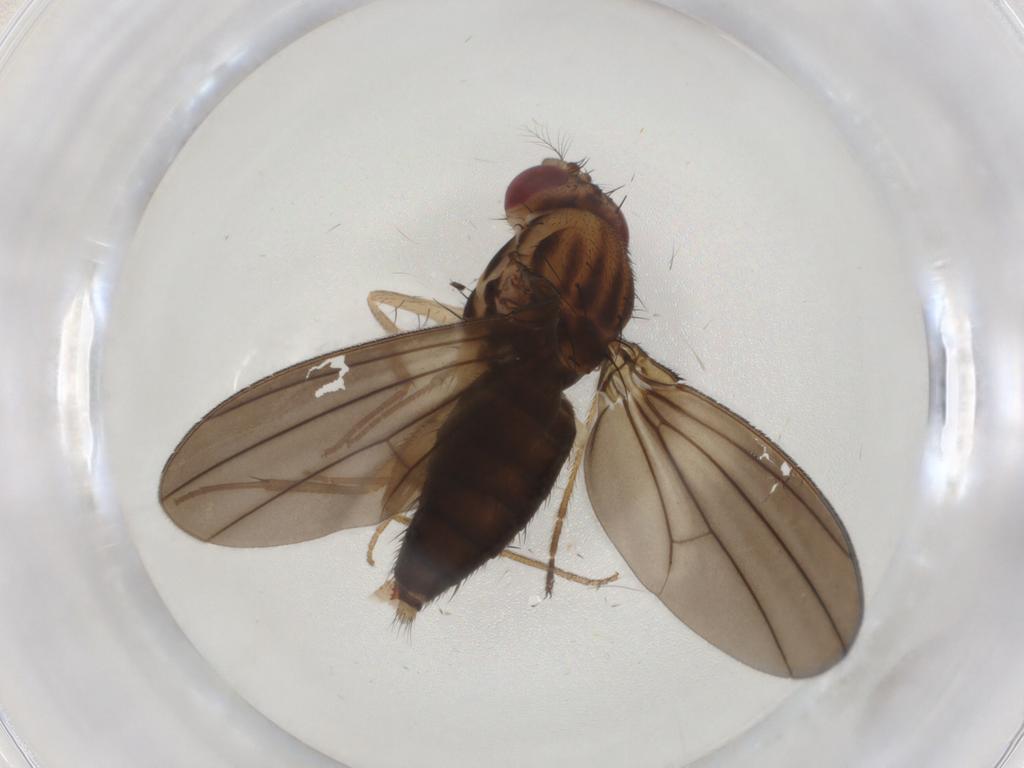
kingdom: Animalia
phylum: Arthropoda
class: Insecta
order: Diptera
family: Drosophilidae
